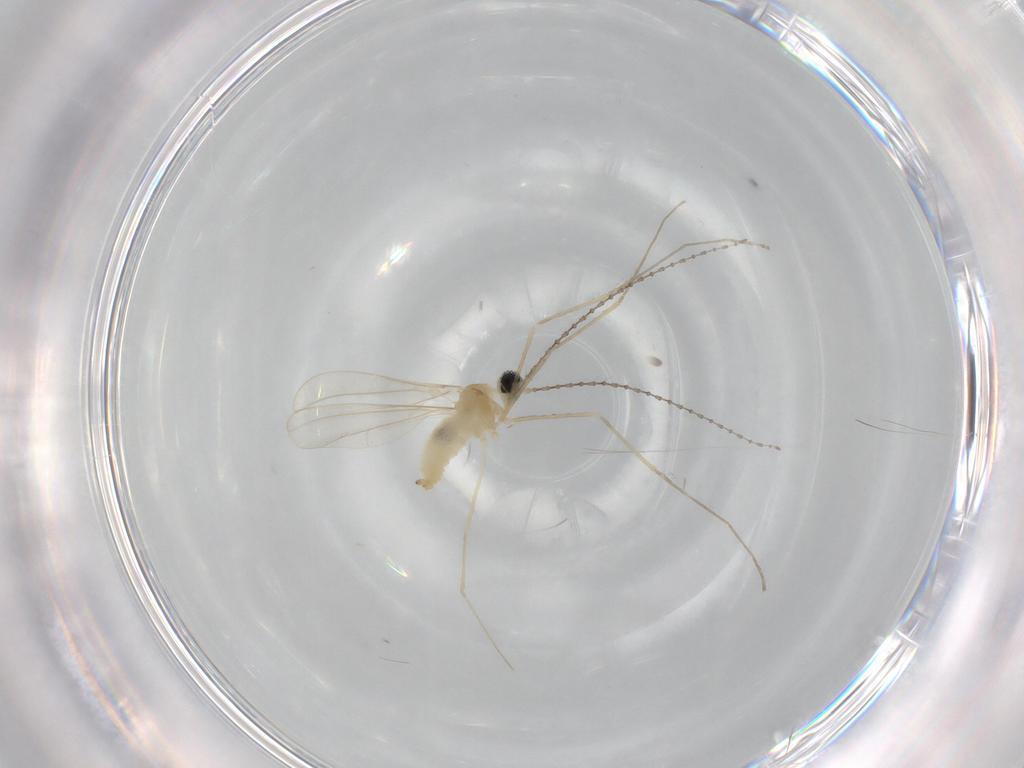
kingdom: Animalia
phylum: Arthropoda
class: Insecta
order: Diptera
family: Cecidomyiidae
